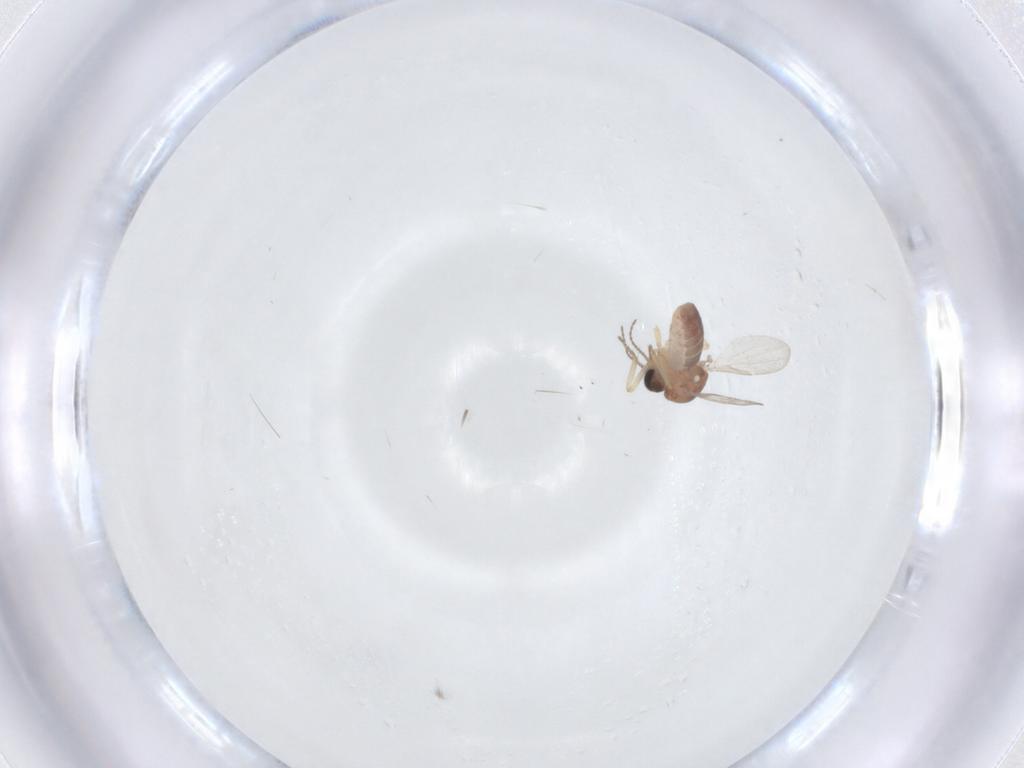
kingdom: Animalia
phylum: Arthropoda
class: Insecta
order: Diptera
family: Ceratopogonidae
